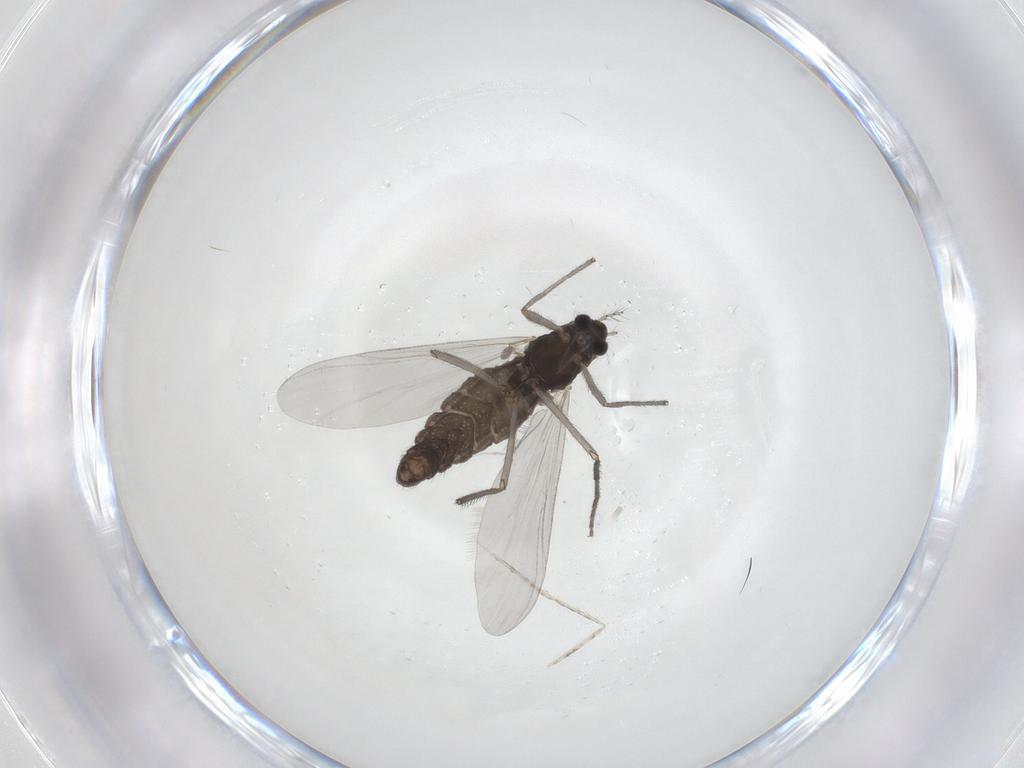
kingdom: Animalia
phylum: Arthropoda
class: Insecta
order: Diptera
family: Chironomidae
